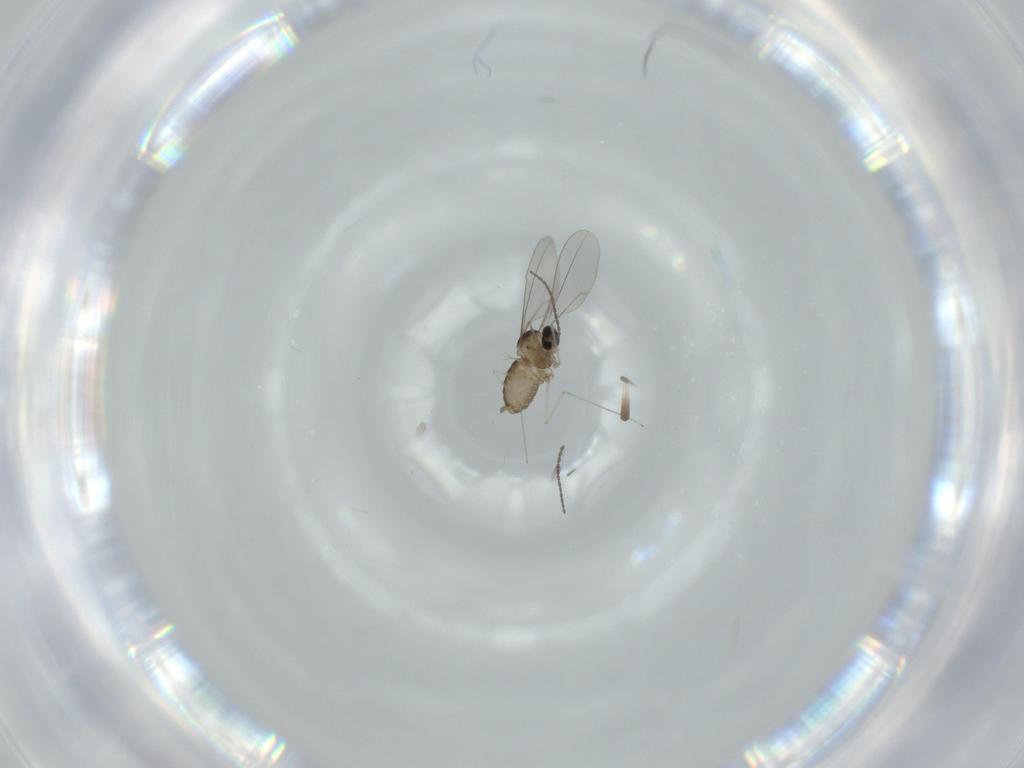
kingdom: Animalia
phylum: Arthropoda
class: Insecta
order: Diptera
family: Cecidomyiidae
